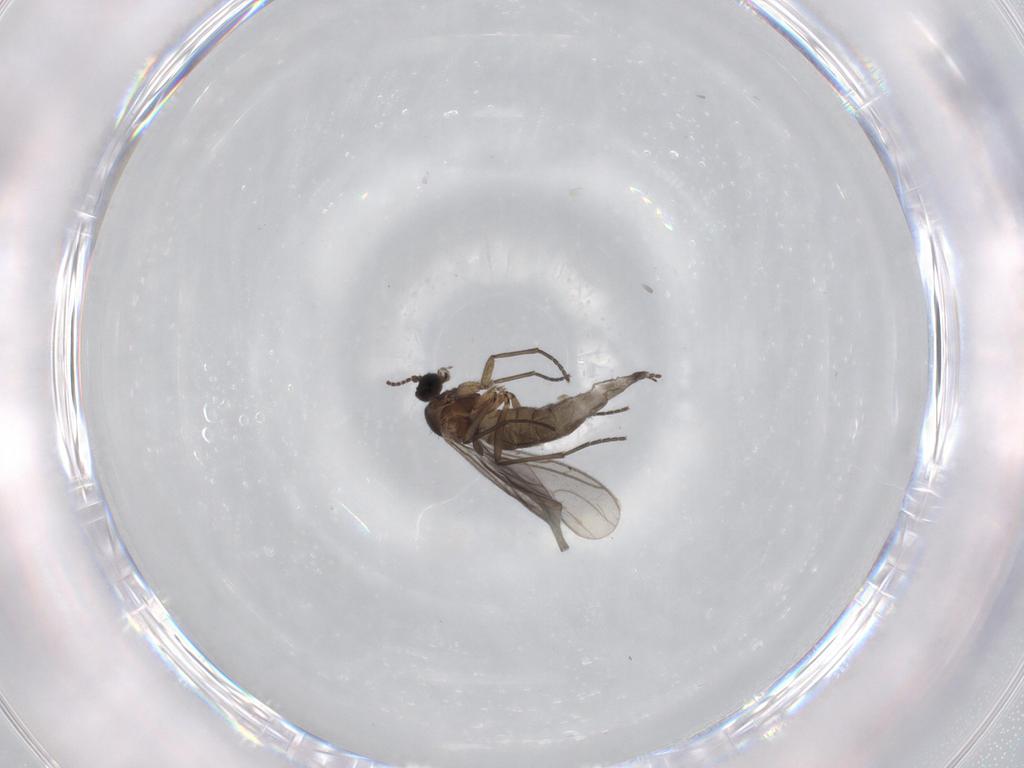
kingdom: Animalia
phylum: Arthropoda
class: Insecta
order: Diptera
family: Sciaridae
